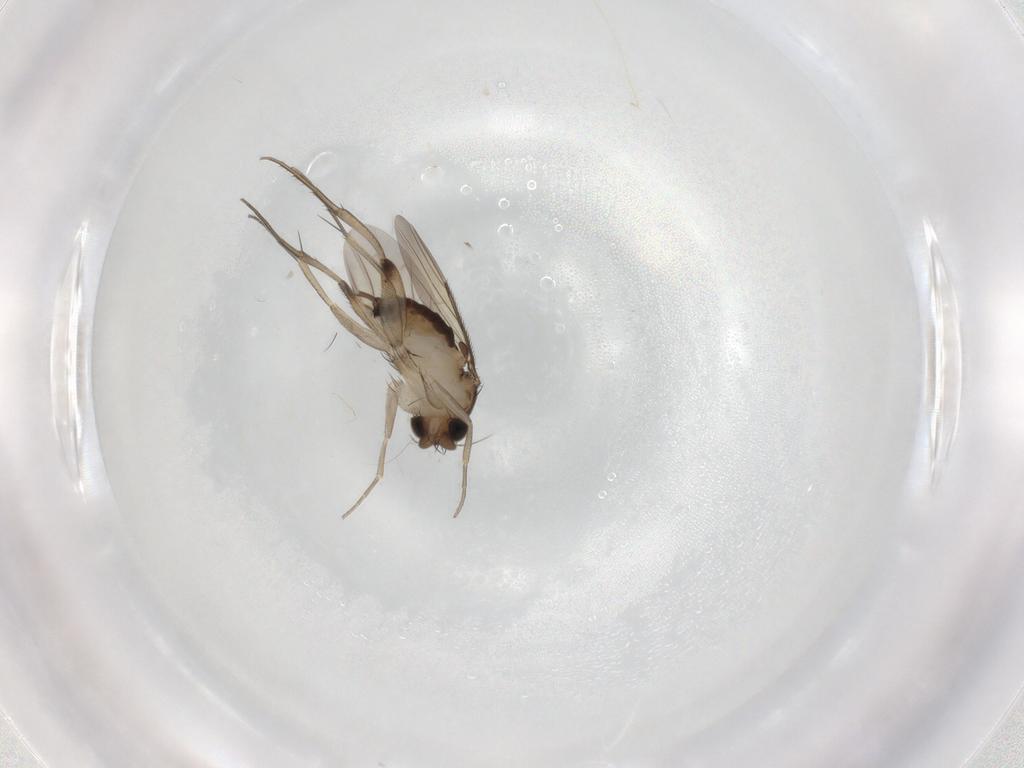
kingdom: Animalia
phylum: Arthropoda
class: Insecta
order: Diptera
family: Phoridae
